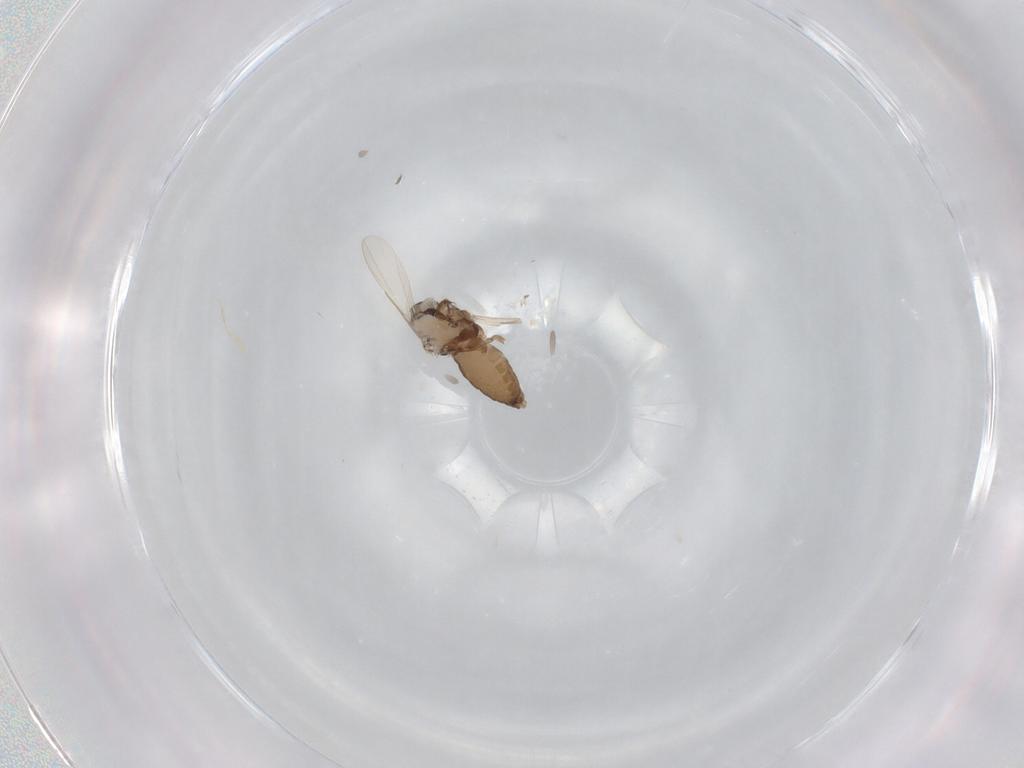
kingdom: Animalia
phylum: Arthropoda
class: Insecta
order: Diptera
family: Ceratopogonidae
